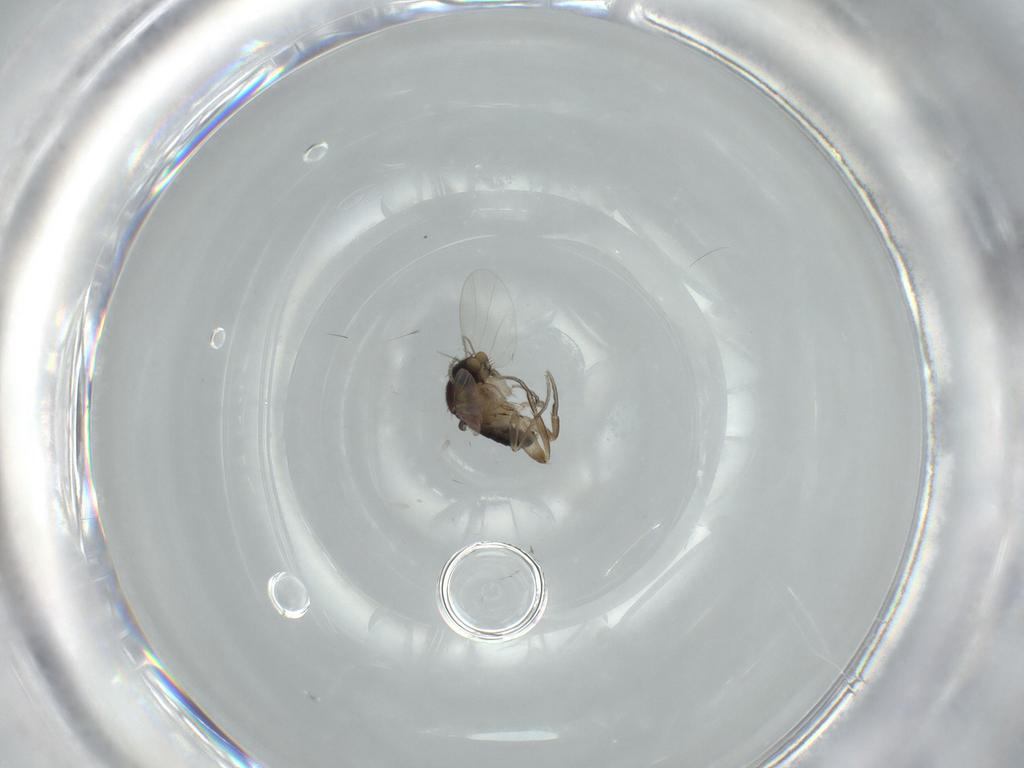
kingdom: Animalia
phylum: Arthropoda
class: Insecta
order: Diptera
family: Phoridae
